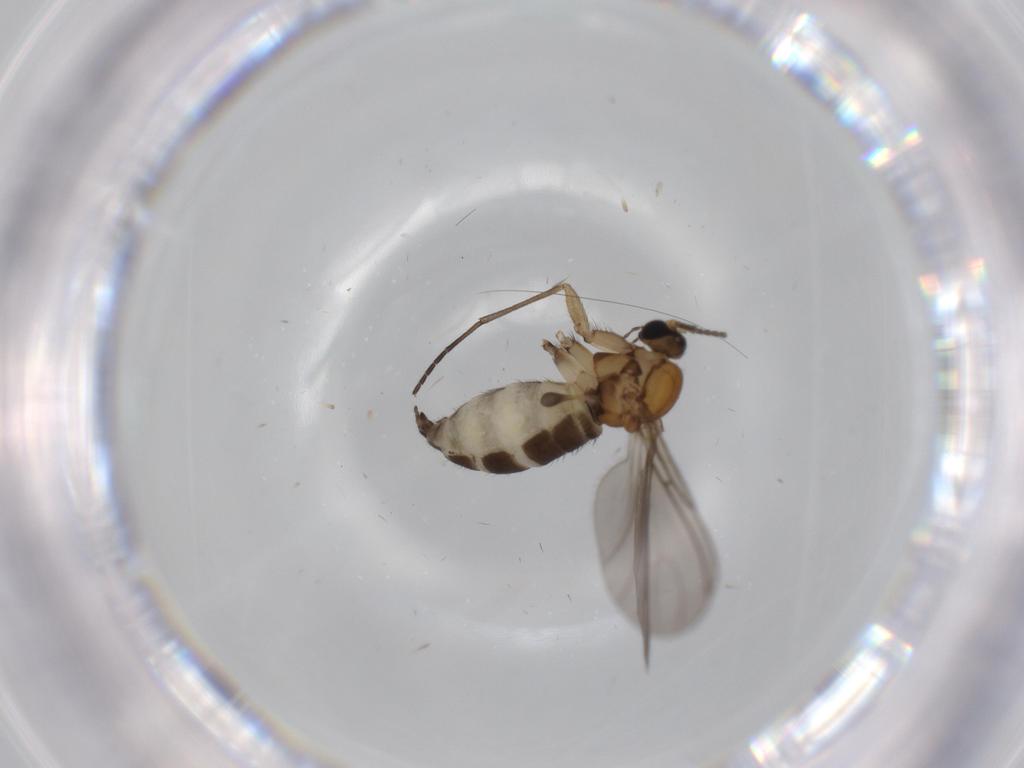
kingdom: Animalia
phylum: Arthropoda
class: Insecta
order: Diptera
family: Sciaridae
